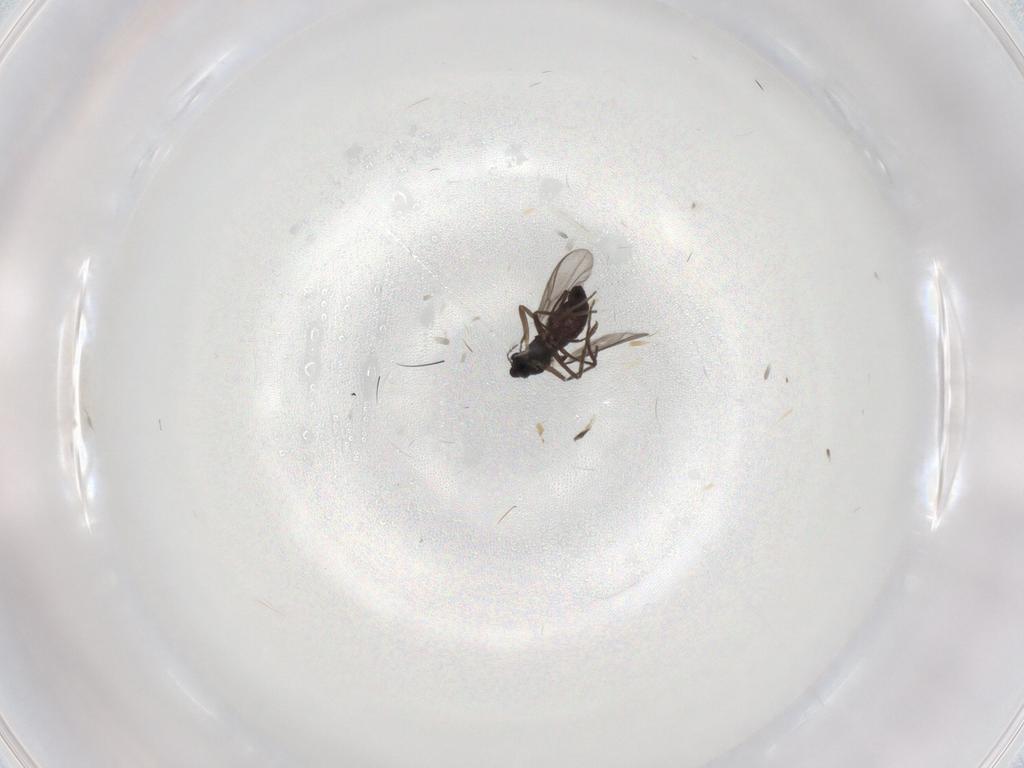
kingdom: Animalia
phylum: Arthropoda
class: Insecta
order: Diptera
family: Chironomidae
